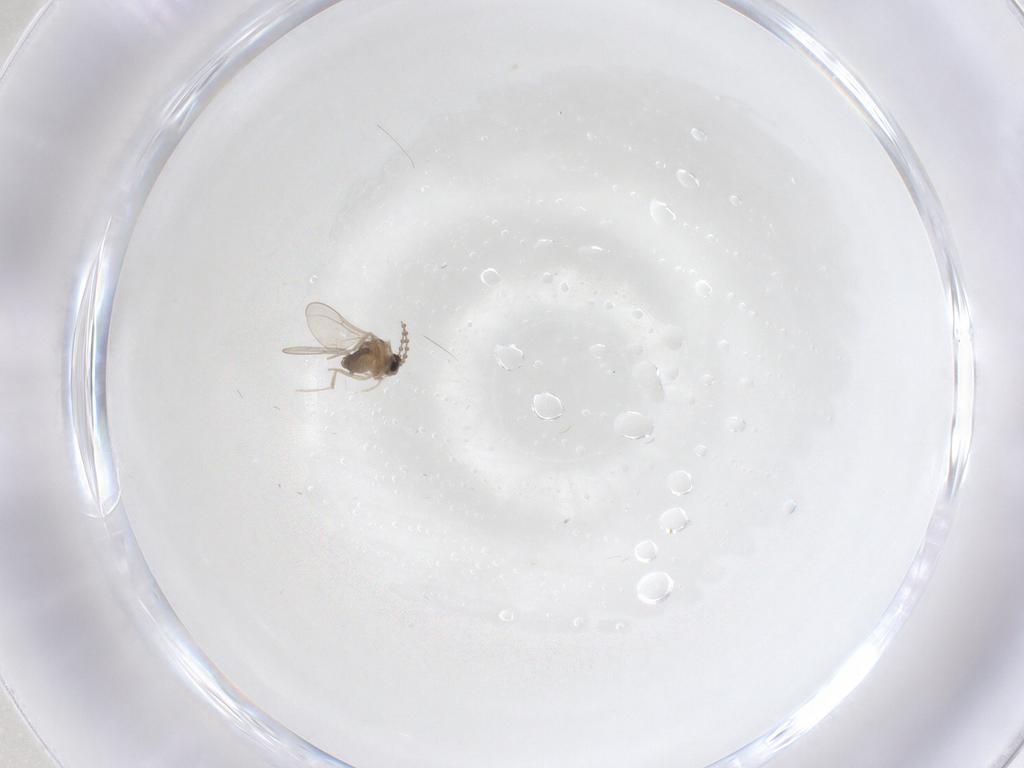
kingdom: Animalia
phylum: Arthropoda
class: Insecta
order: Diptera
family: Cecidomyiidae
